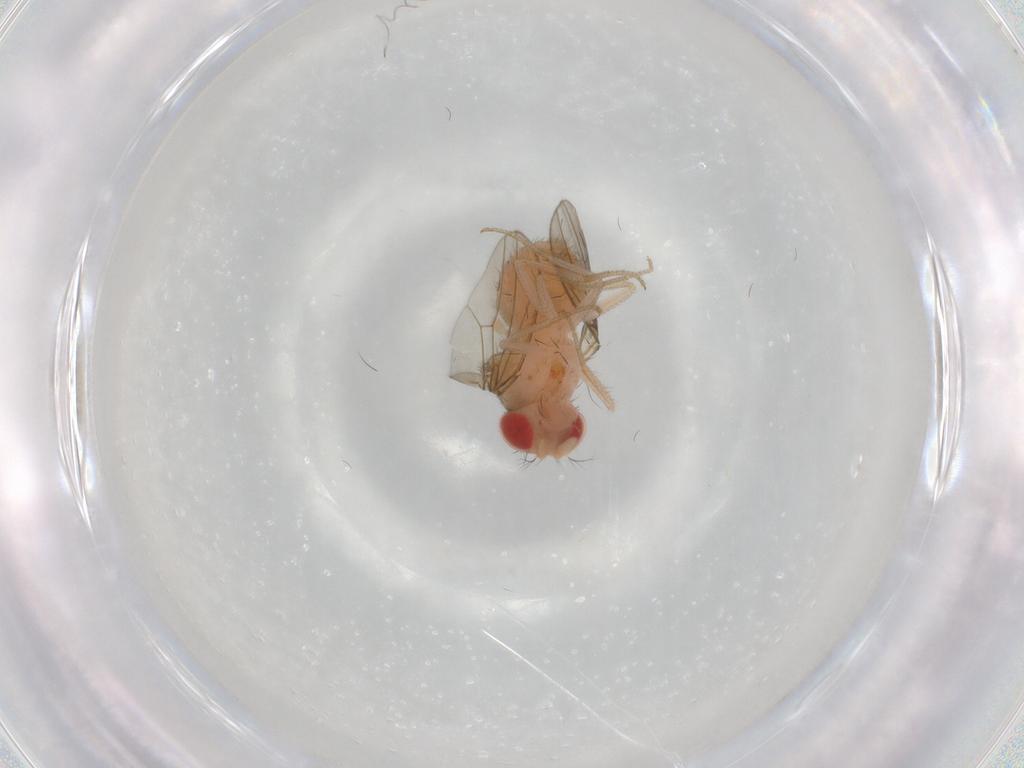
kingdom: Animalia
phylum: Arthropoda
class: Insecta
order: Diptera
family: Drosophilidae
